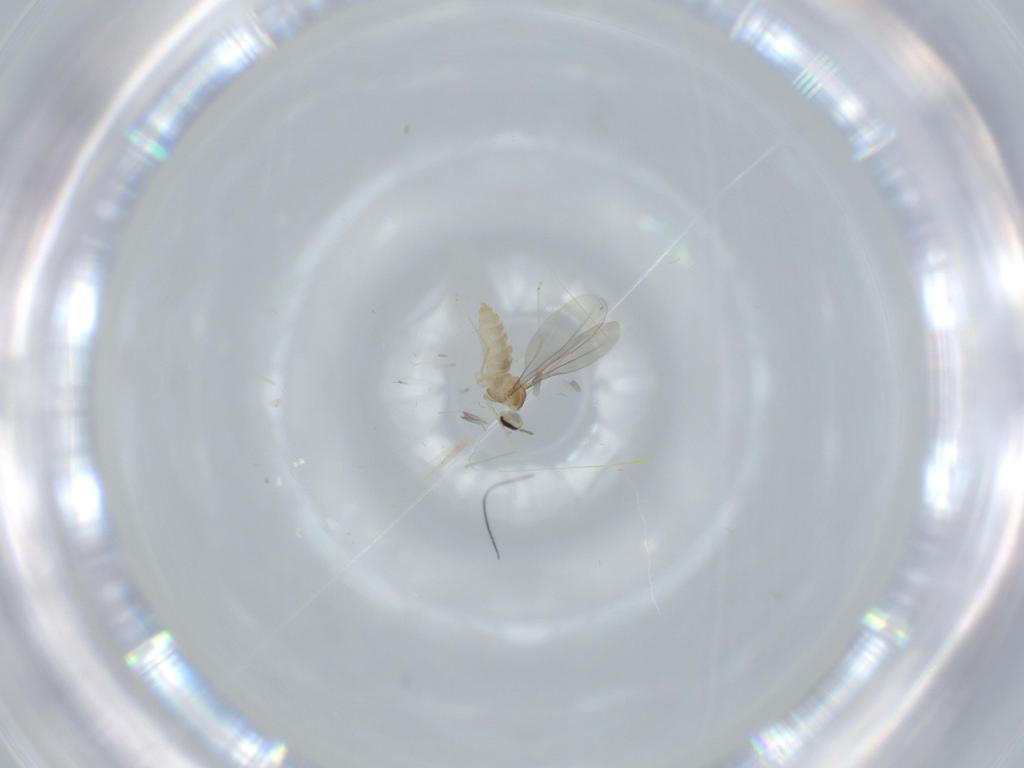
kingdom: Animalia
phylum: Arthropoda
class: Insecta
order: Diptera
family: Cecidomyiidae
